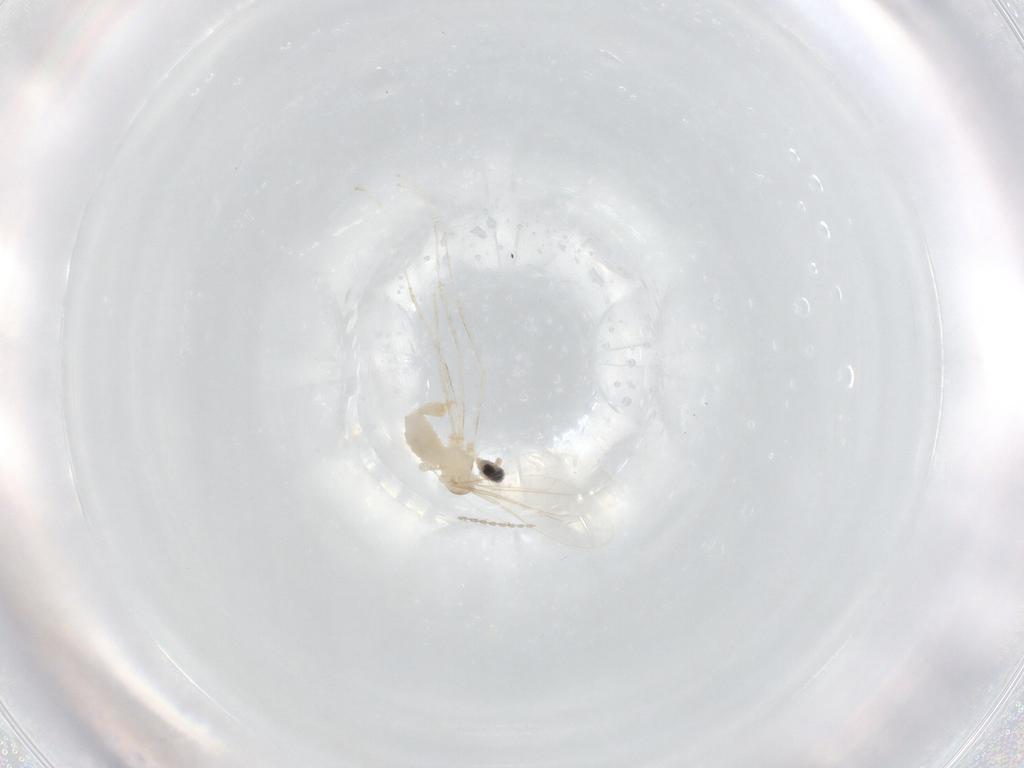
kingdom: Animalia
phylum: Arthropoda
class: Insecta
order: Diptera
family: Cecidomyiidae
